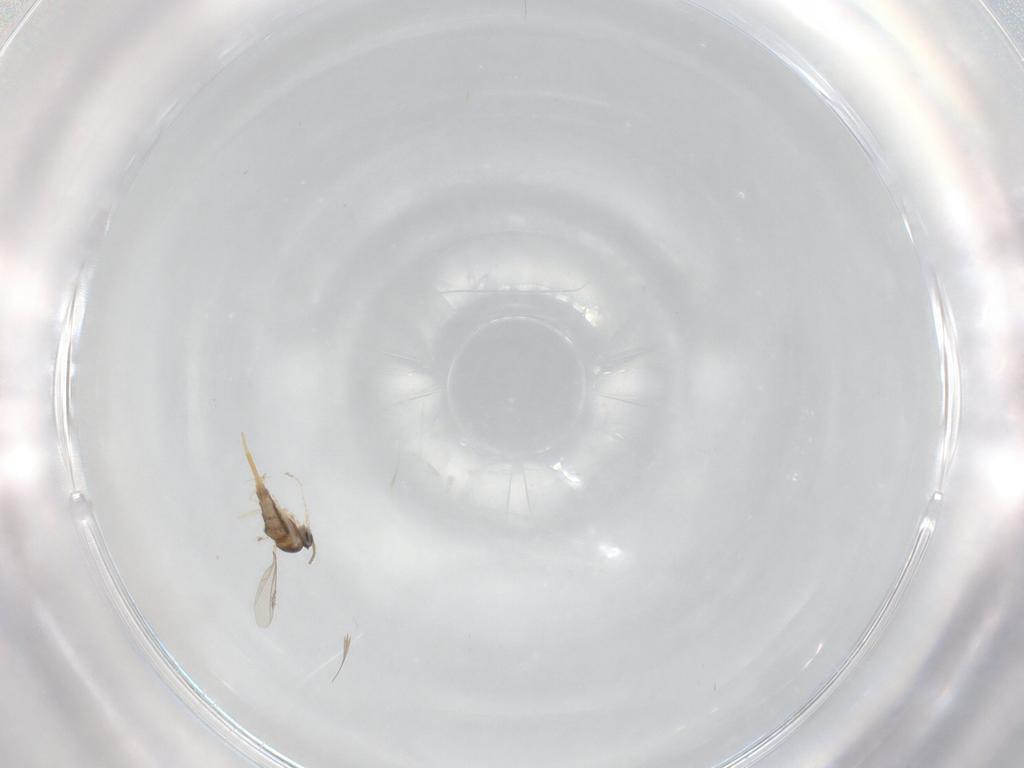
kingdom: Animalia
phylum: Arthropoda
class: Insecta
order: Diptera
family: Cecidomyiidae
